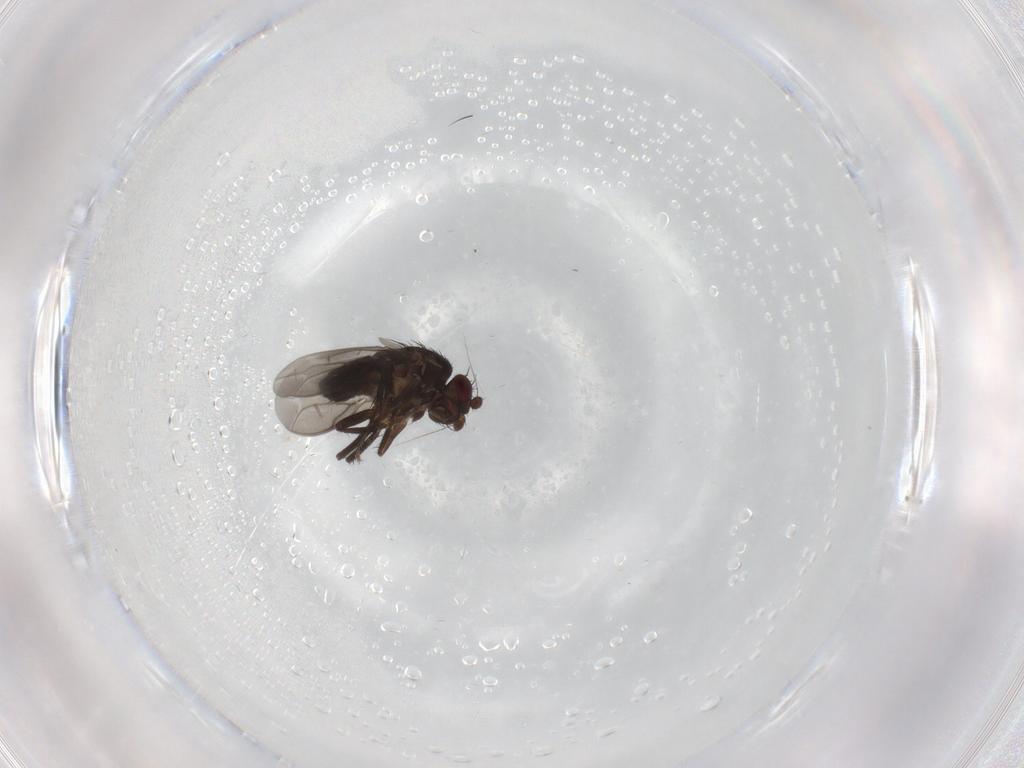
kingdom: Animalia
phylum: Arthropoda
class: Insecta
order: Diptera
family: Sphaeroceridae
